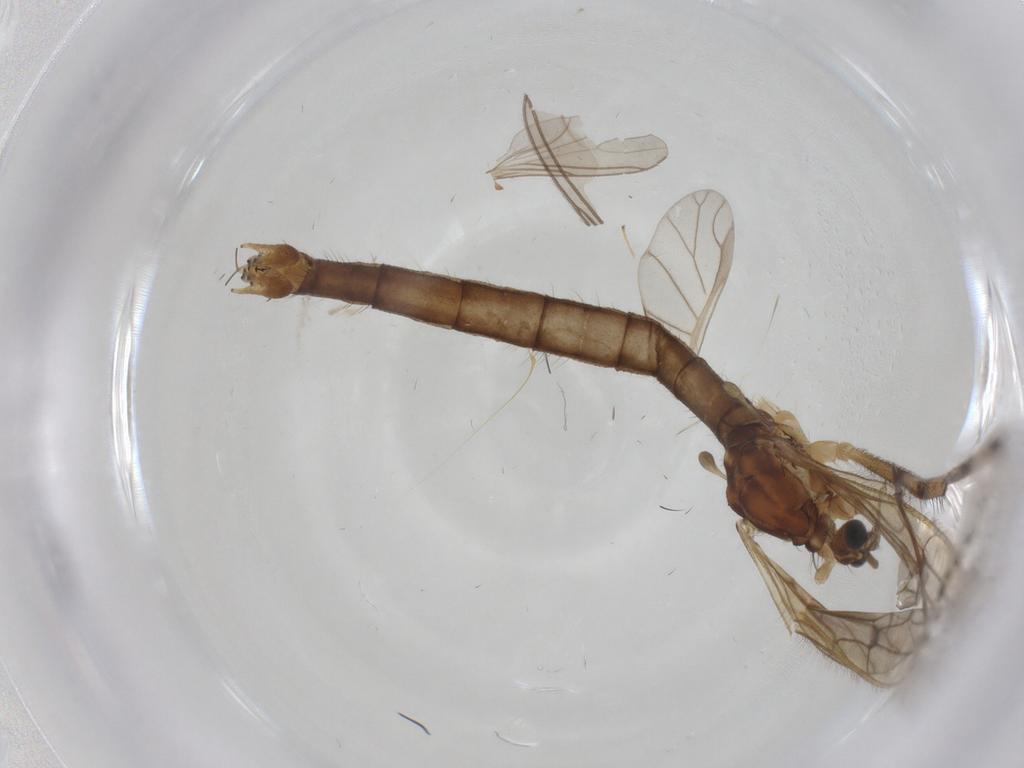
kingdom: Animalia
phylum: Arthropoda
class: Insecta
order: Diptera
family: Limoniidae
